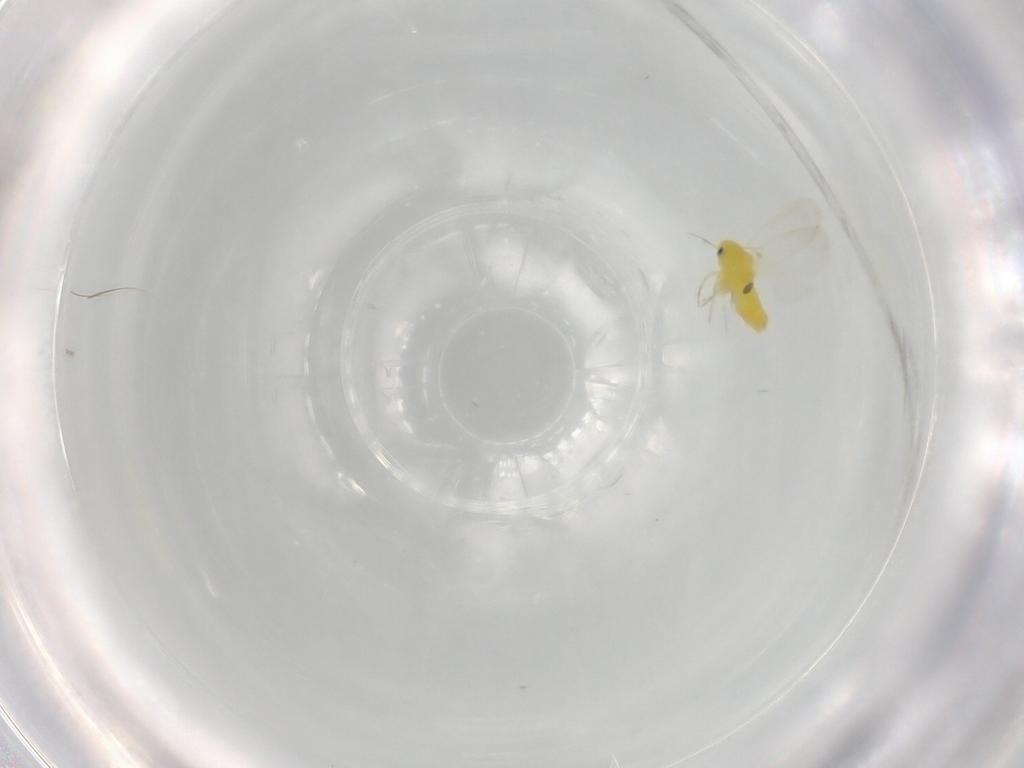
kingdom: Animalia
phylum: Arthropoda
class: Insecta
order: Hemiptera
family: Aleyrodidae
